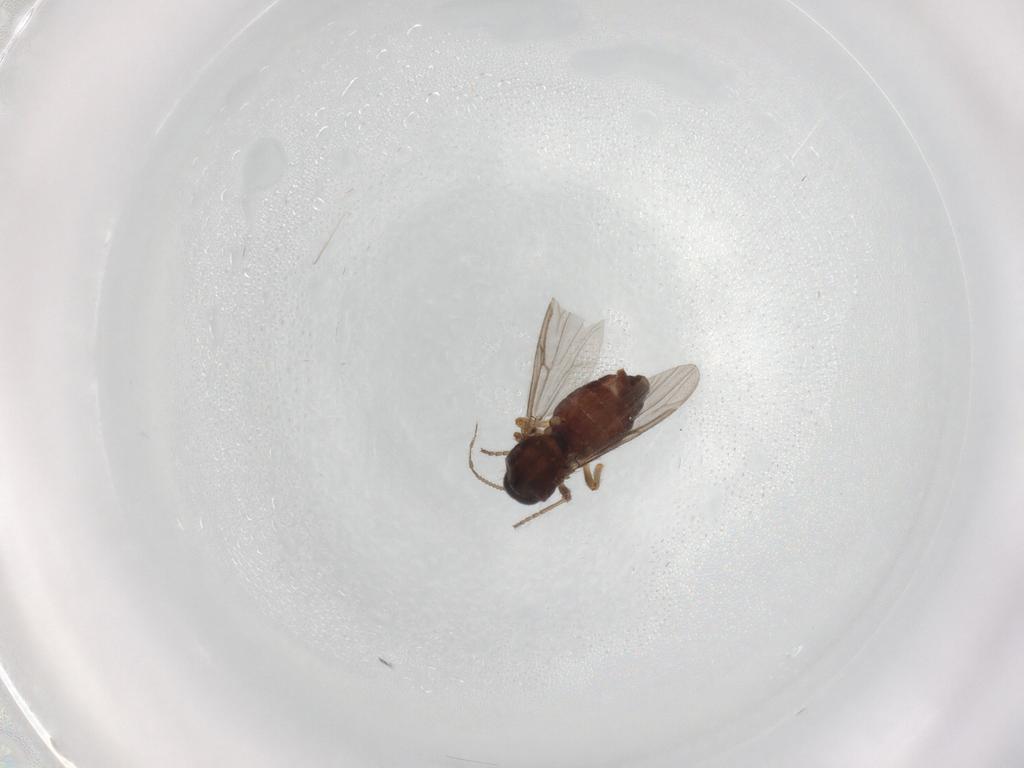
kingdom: Animalia
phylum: Arthropoda
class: Insecta
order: Diptera
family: Ceratopogonidae
